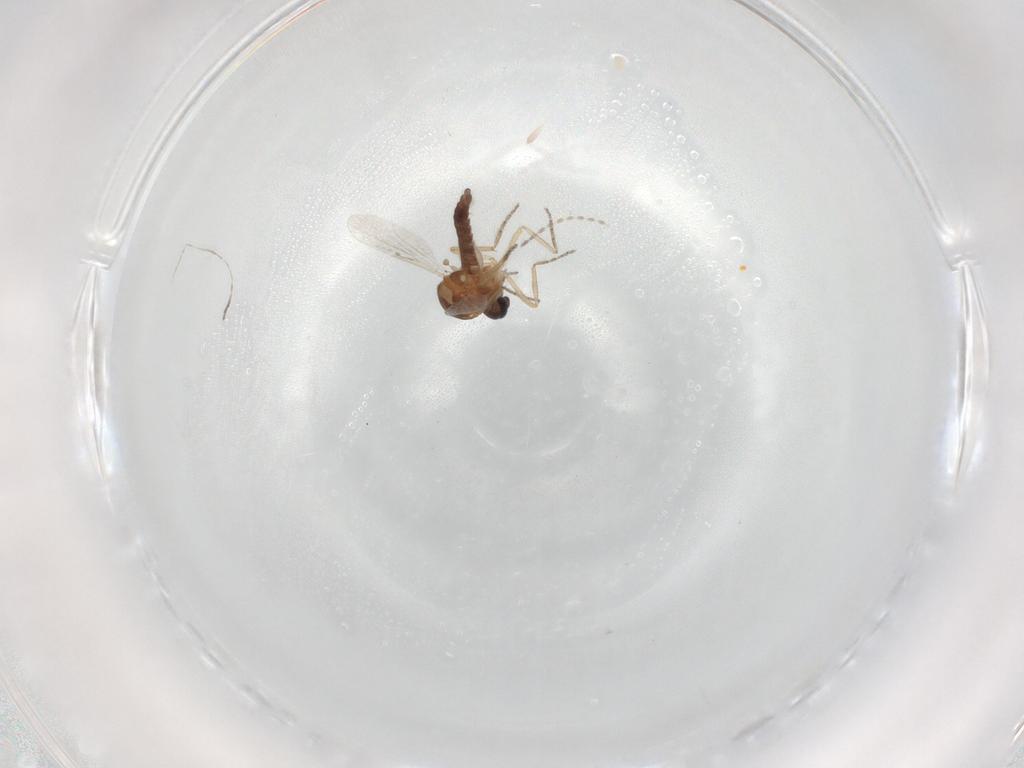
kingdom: Animalia
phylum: Arthropoda
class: Insecta
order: Diptera
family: Ceratopogonidae
